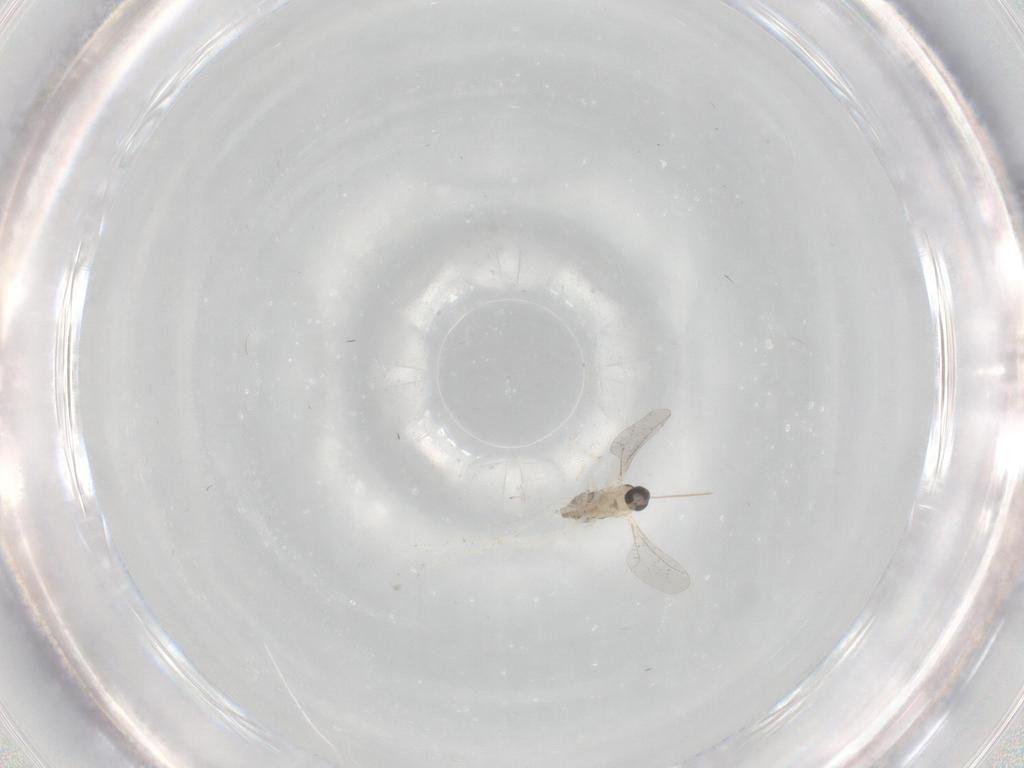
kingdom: Animalia
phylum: Arthropoda
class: Insecta
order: Diptera
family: Cecidomyiidae
